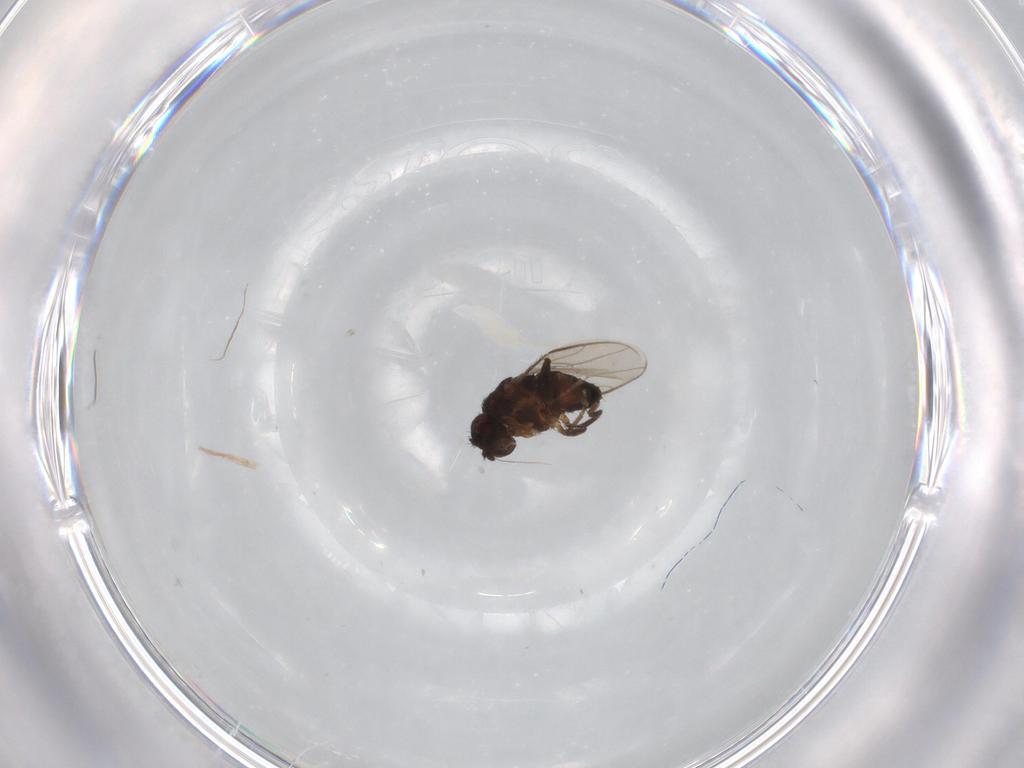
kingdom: Animalia
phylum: Arthropoda
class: Insecta
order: Diptera
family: Sphaeroceridae
